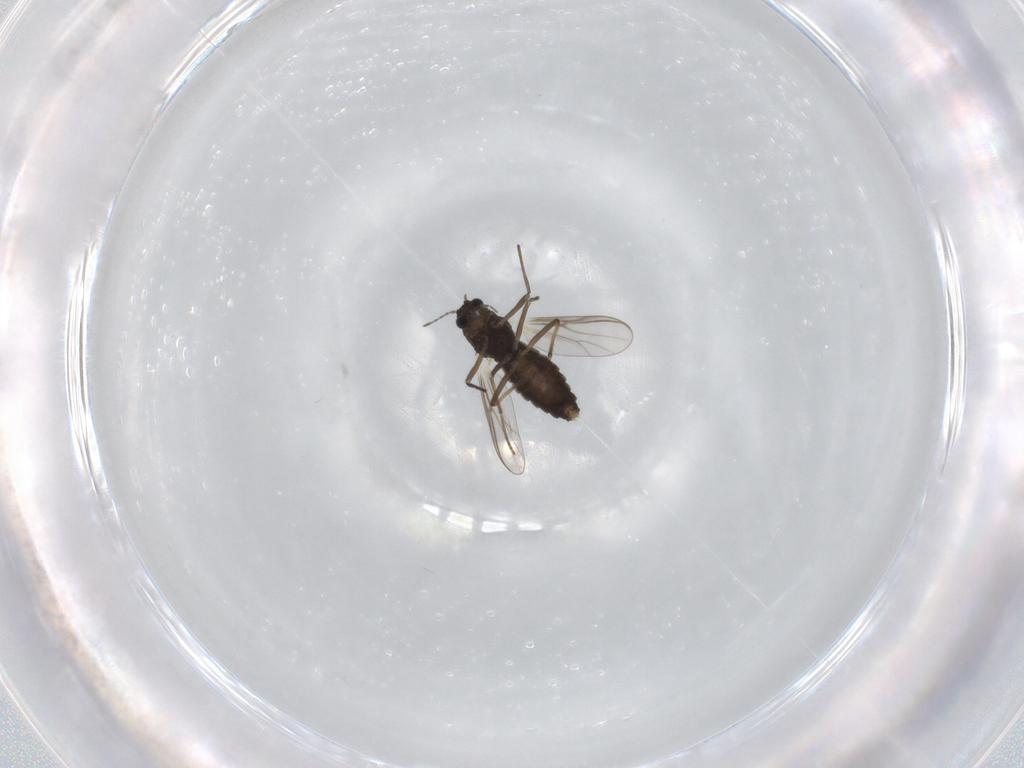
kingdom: Animalia
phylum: Arthropoda
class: Insecta
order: Diptera
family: Chironomidae
